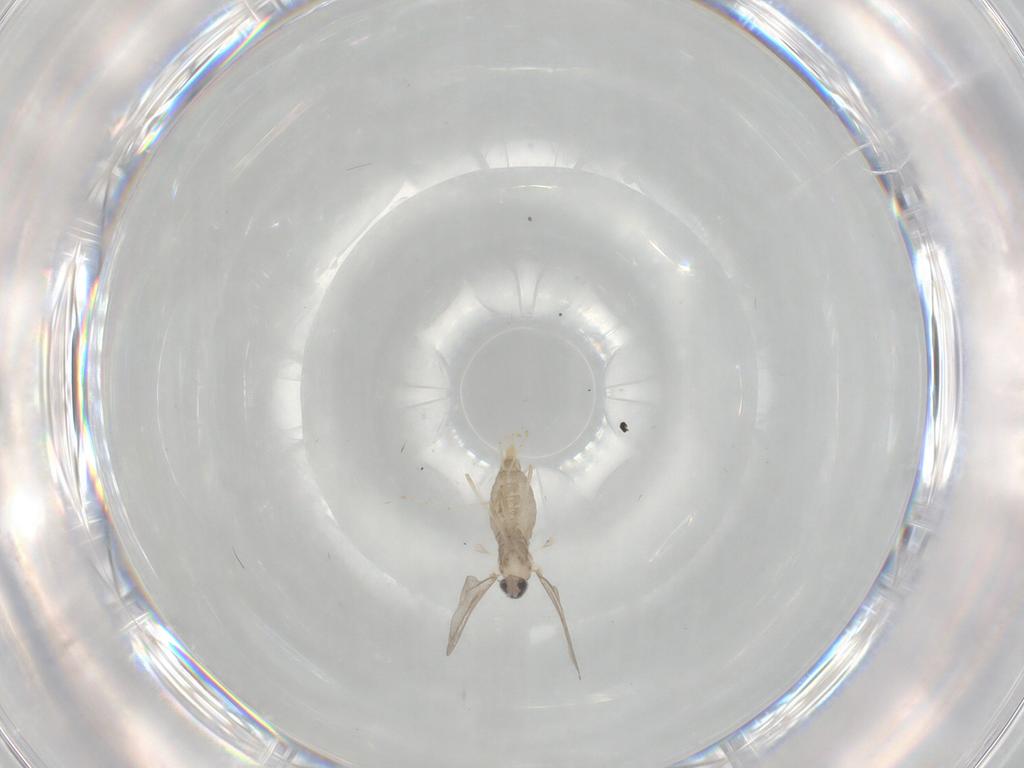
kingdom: Animalia
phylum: Arthropoda
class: Insecta
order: Diptera
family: Cecidomyiidae
